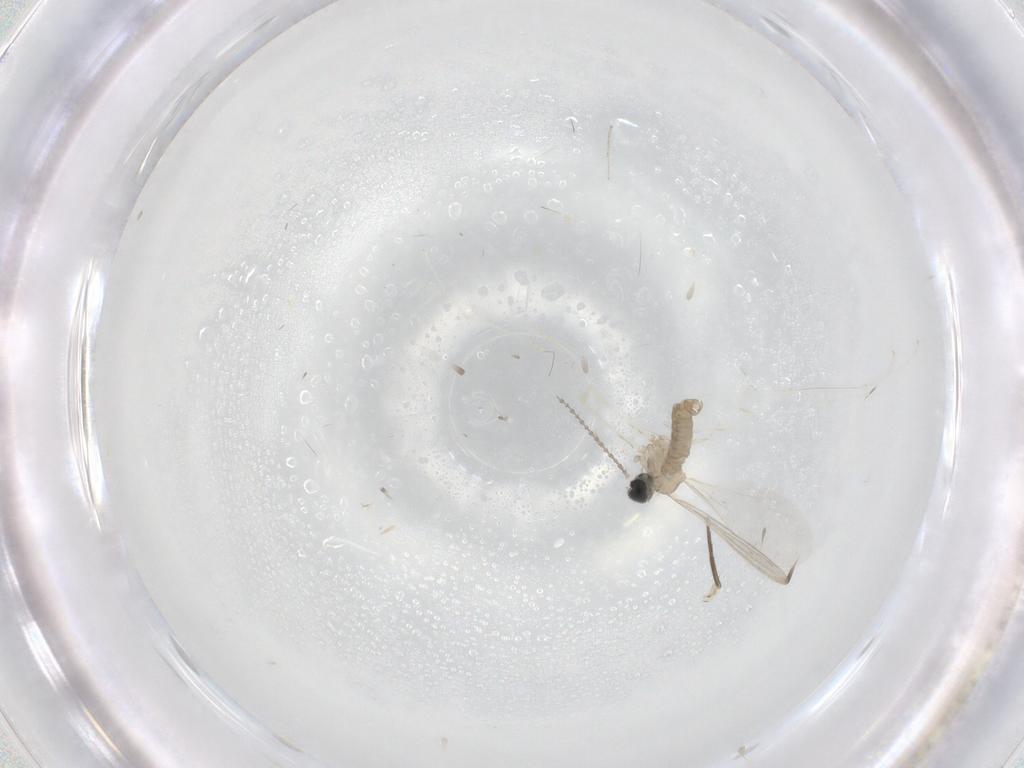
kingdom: Animalia
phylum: Arthropoda
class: Insecta
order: Diptera
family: Cecidomyiidae
